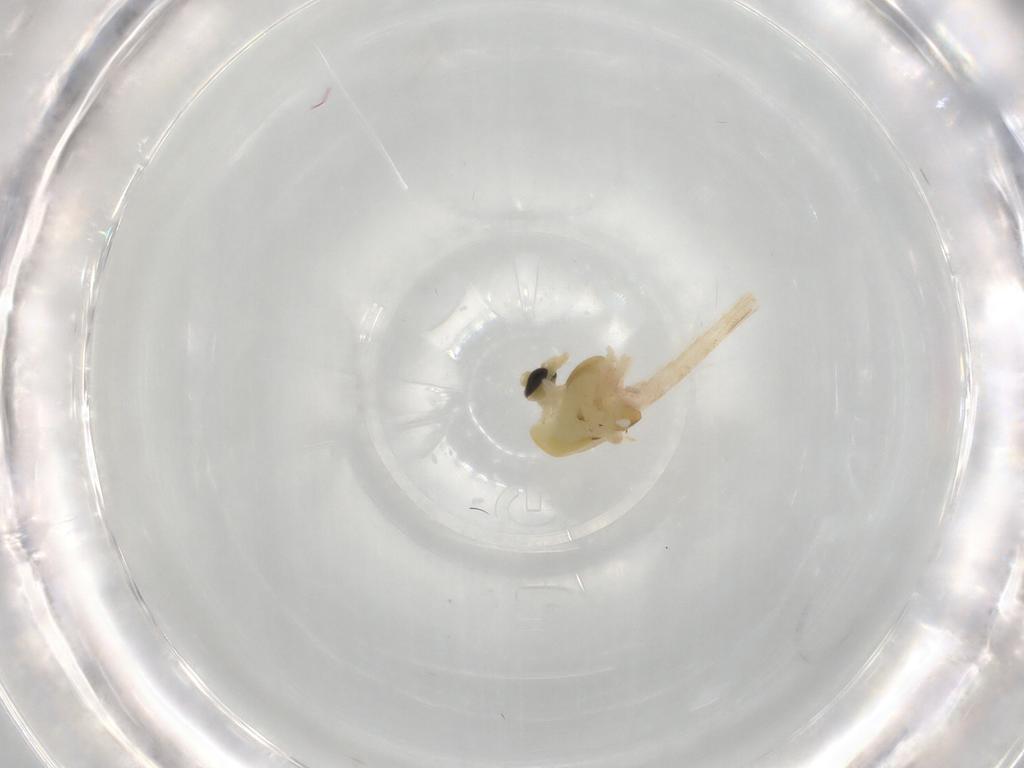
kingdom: Animalia
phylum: Arthropoda
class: Insecta
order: Diptera
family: Chironomidae
